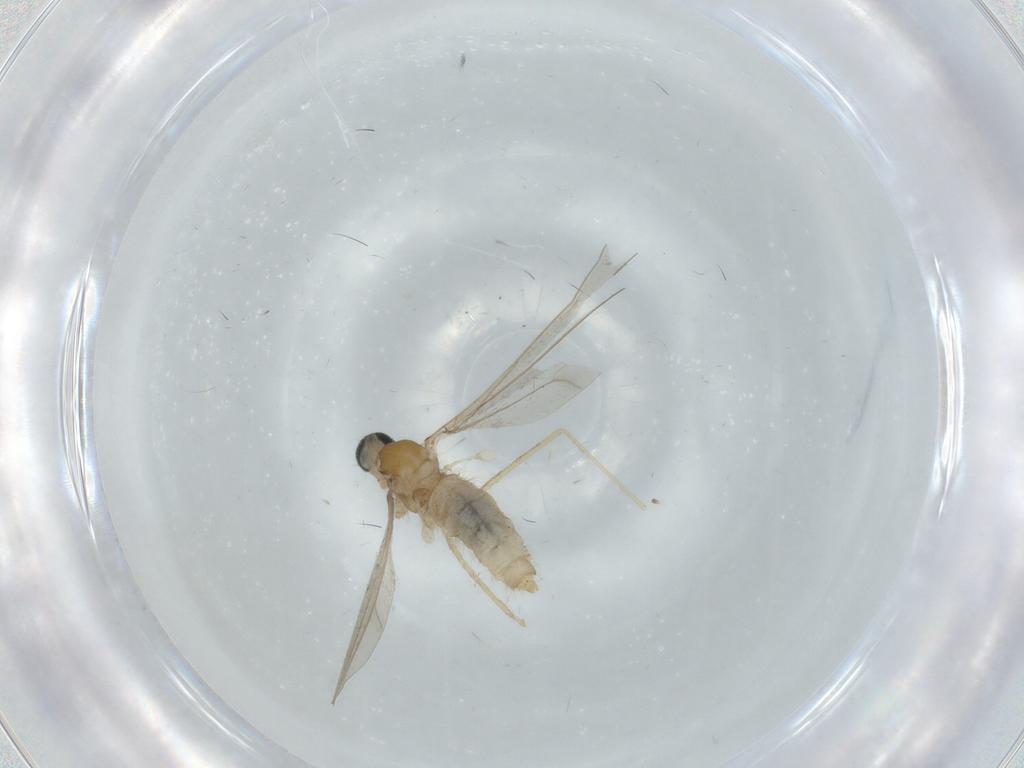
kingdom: Animalia
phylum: Arthropoda
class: Insecta
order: Diptera
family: Cecidomyiidae
